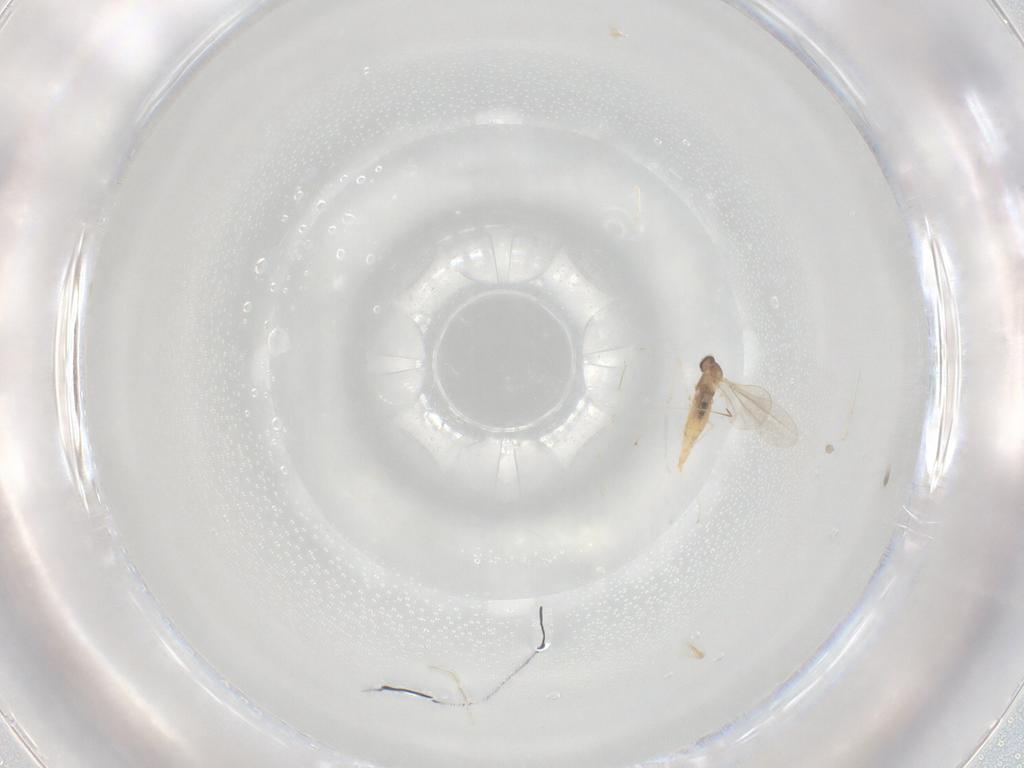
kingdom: Animalia
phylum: Arthropoda
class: Insecta
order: Diptera
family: Cecidomyiidae
